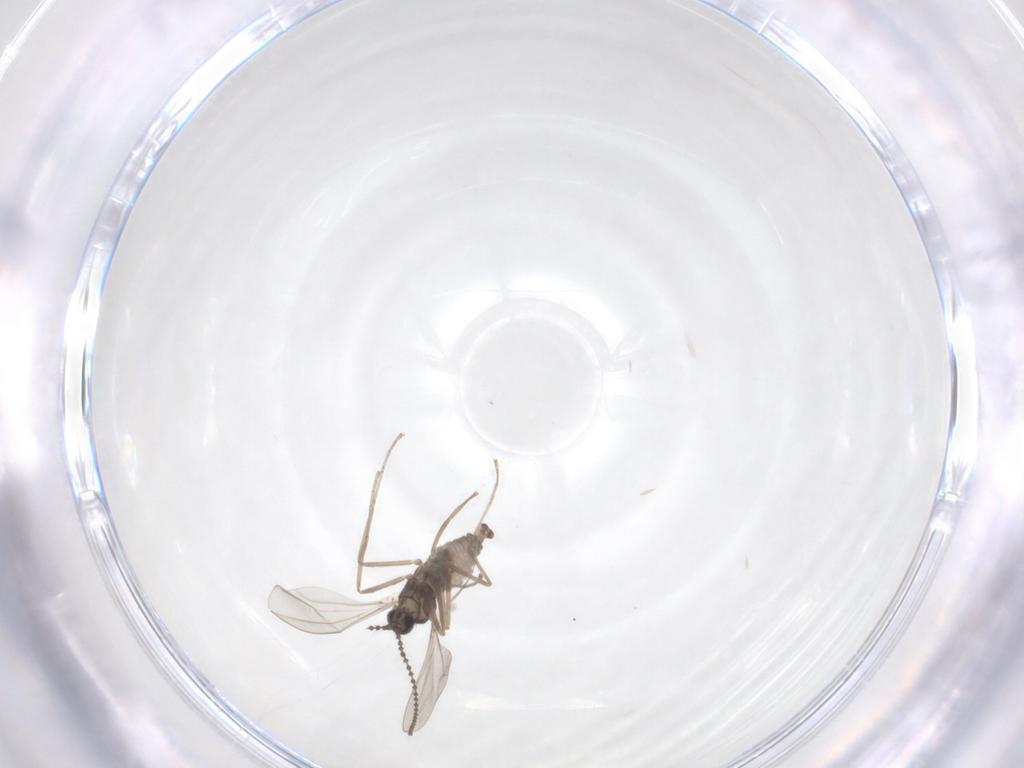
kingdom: Animalia
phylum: Arthropoda
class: Insecta
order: Diptera
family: Cecidomyiidae
